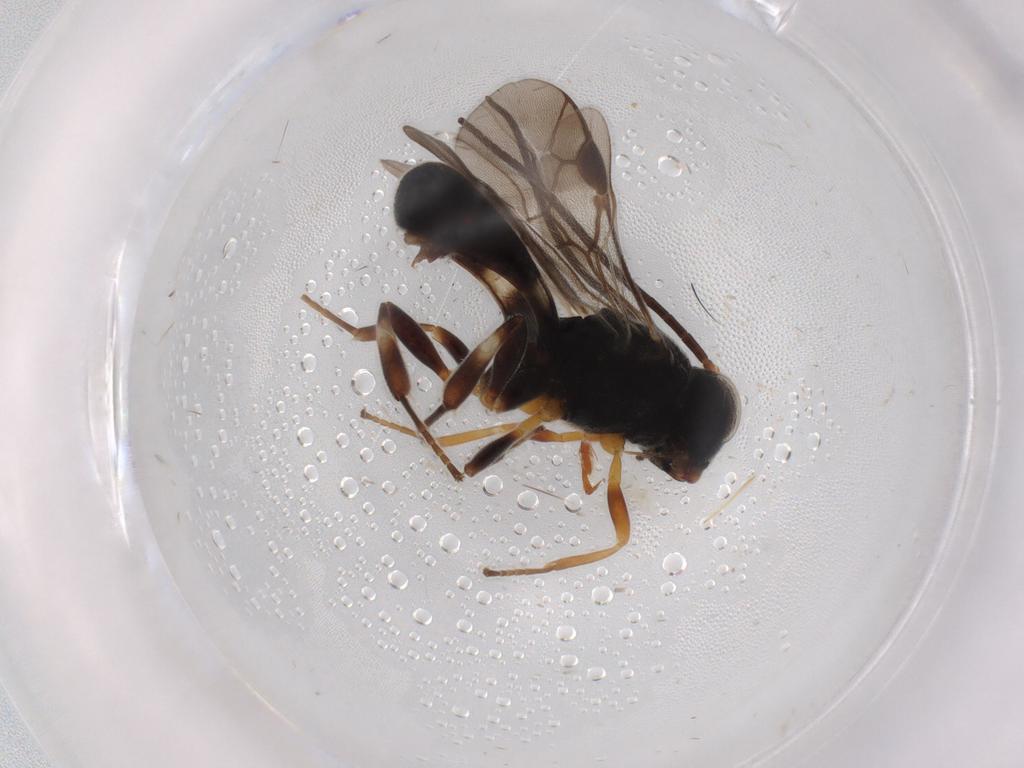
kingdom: Animalia
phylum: Arthropoda
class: Insecta
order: Hymenoptera
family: Braconidae
